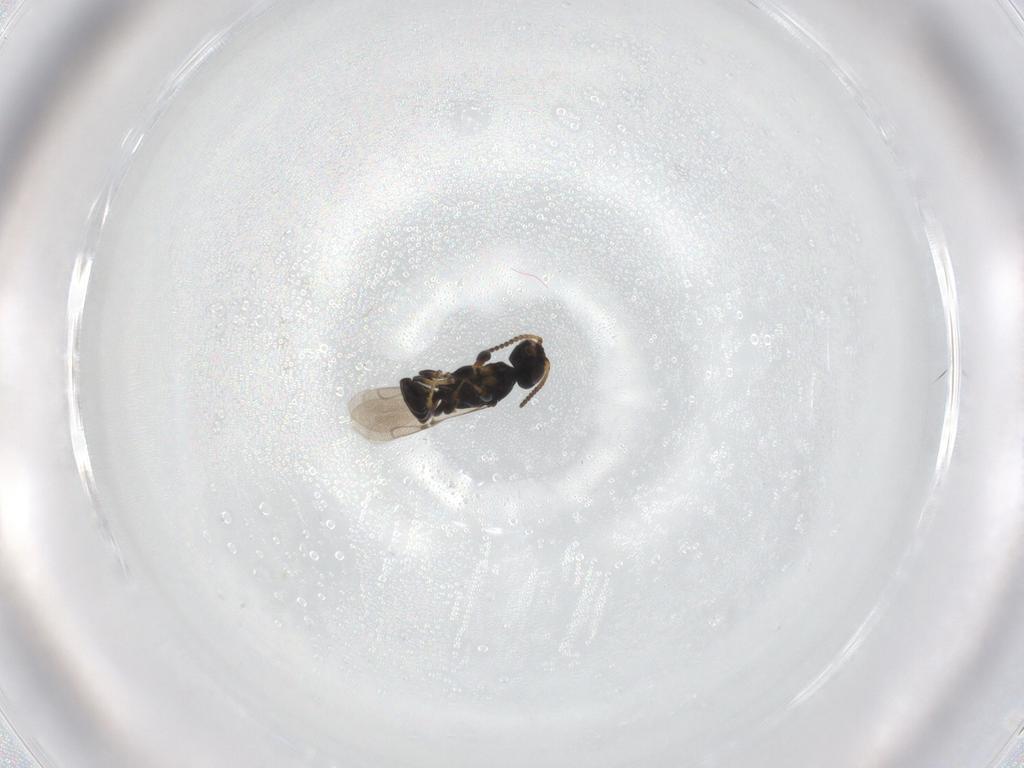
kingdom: Animalia
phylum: Arthropoda
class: Insecta
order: Hymenoptera
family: Bethylidae
